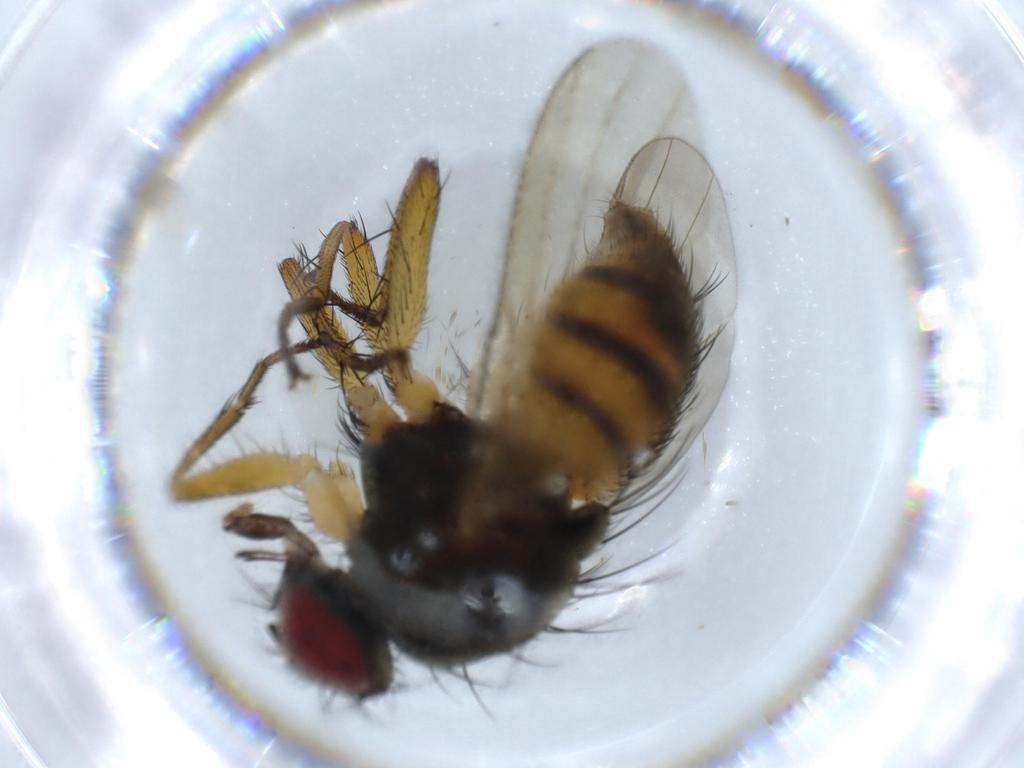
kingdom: Animalia
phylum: Arthropoda
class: Insecta
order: Diptera
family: Muscidae
